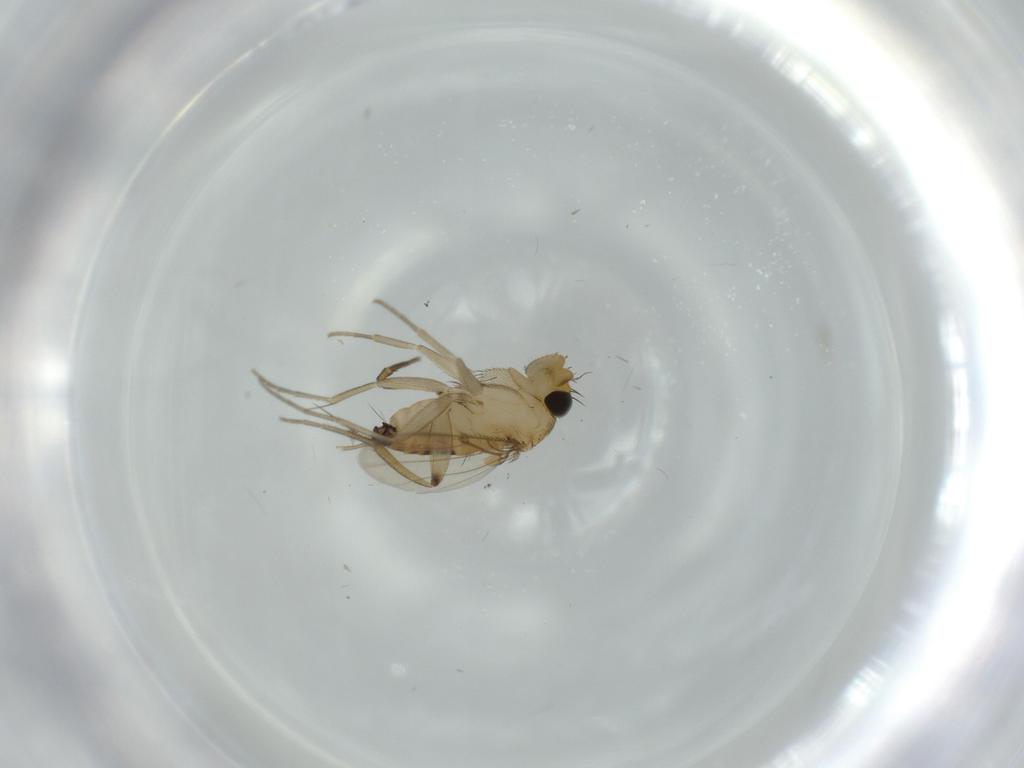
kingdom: Animalia
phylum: Arthropoda
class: Insecta
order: Diptera
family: Phoridae
